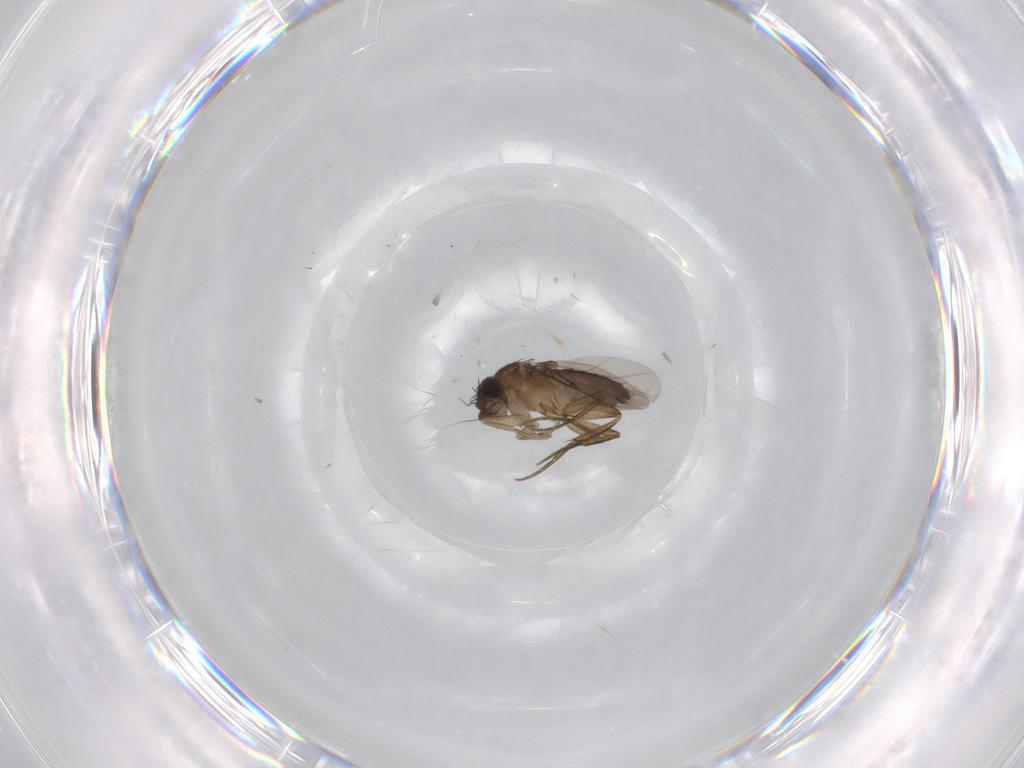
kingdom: Animalia
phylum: Arthropoda
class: Insecta
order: Diptera
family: Phoridae
